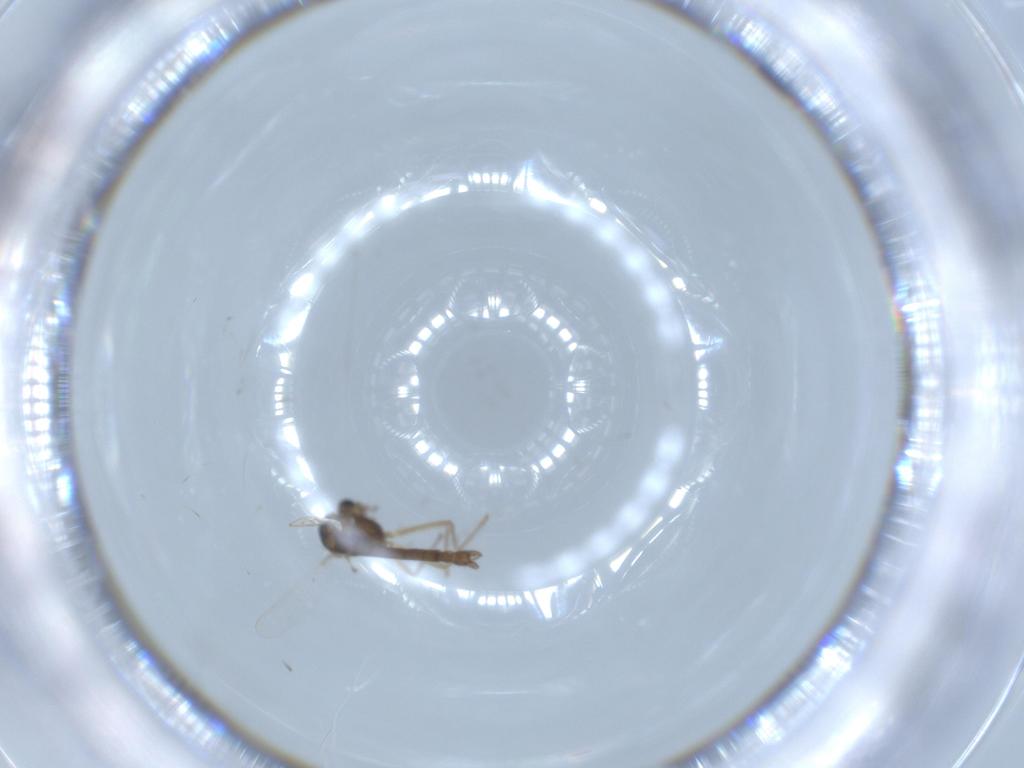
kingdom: Animalia
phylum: Arthropoda
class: Insecta
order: Diptera
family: Chironomidae
